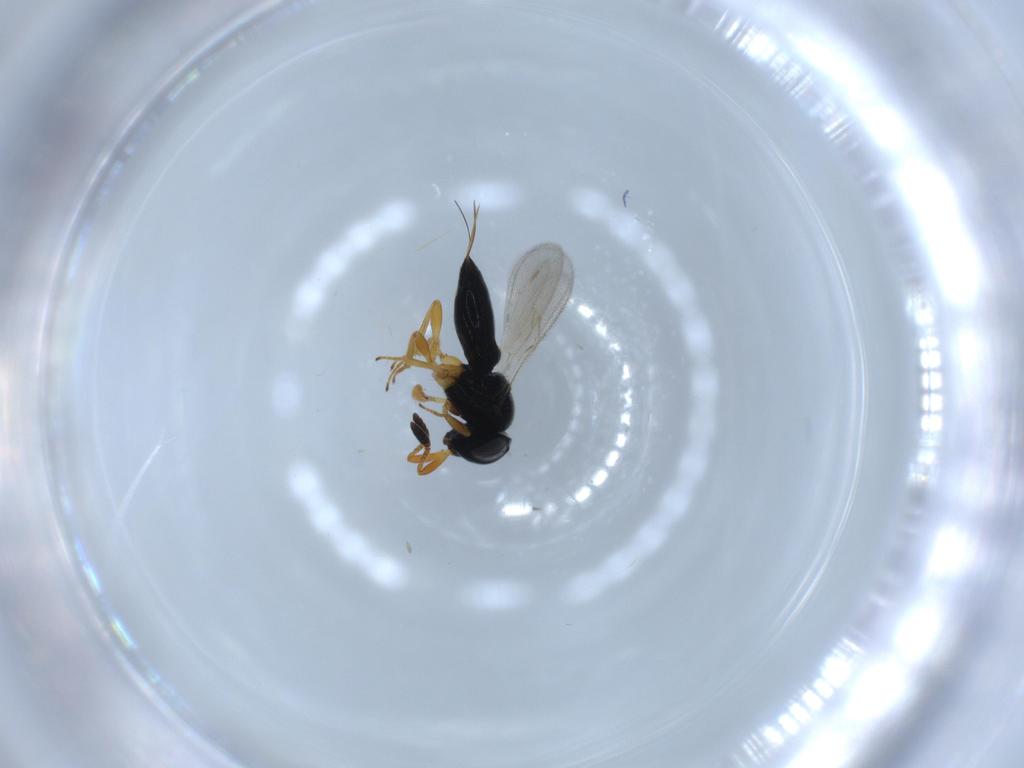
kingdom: Animalia
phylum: Arthropoda
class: Insecta
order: Hymenoptera
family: Scelionidae
